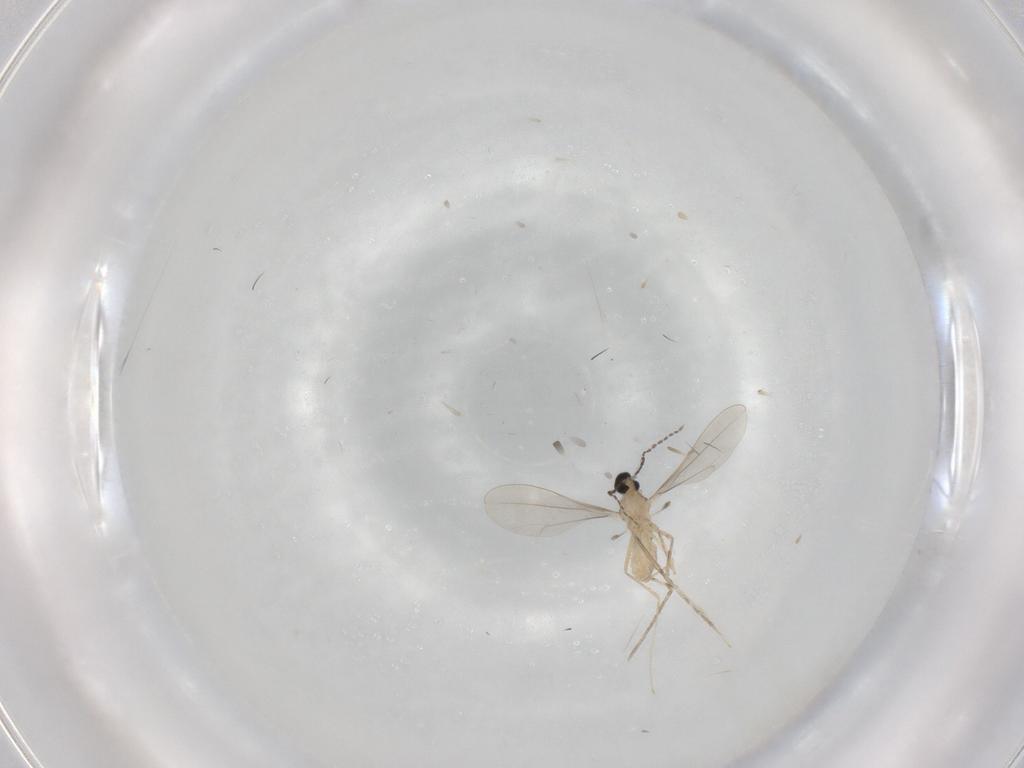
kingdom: Animalia
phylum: Arthropoda
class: Insecta
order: Diptera
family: Cecidomyiidae
